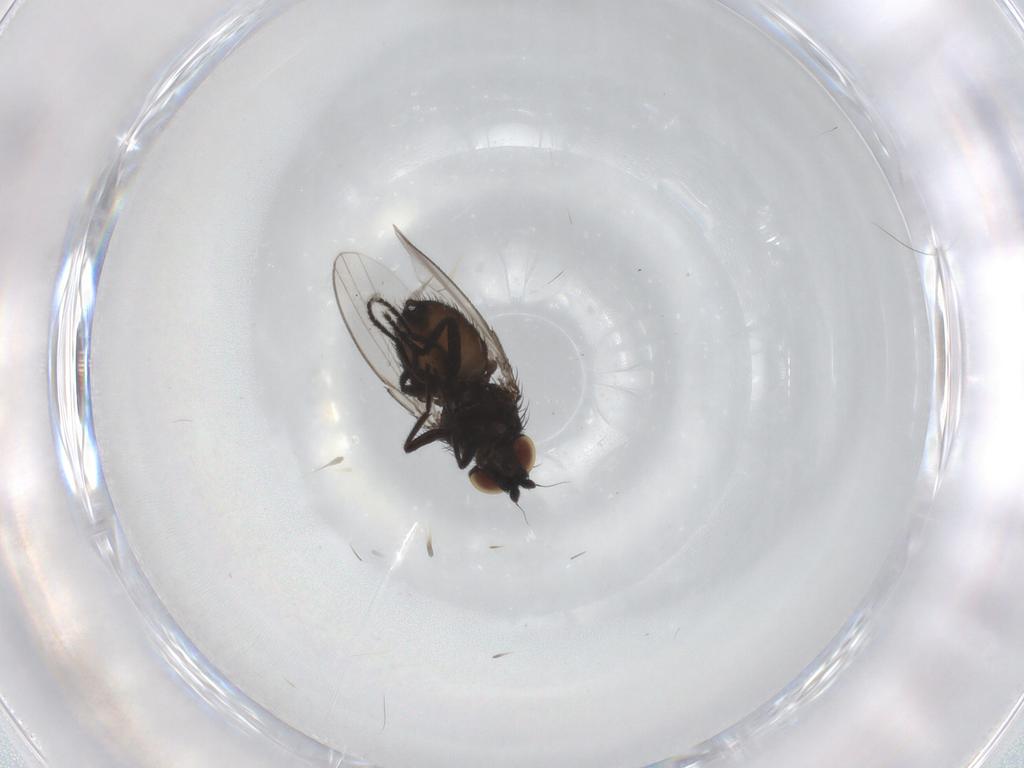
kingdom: Animalia
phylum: Arthropoda
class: Insecta
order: Diptera
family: Milichiidae
